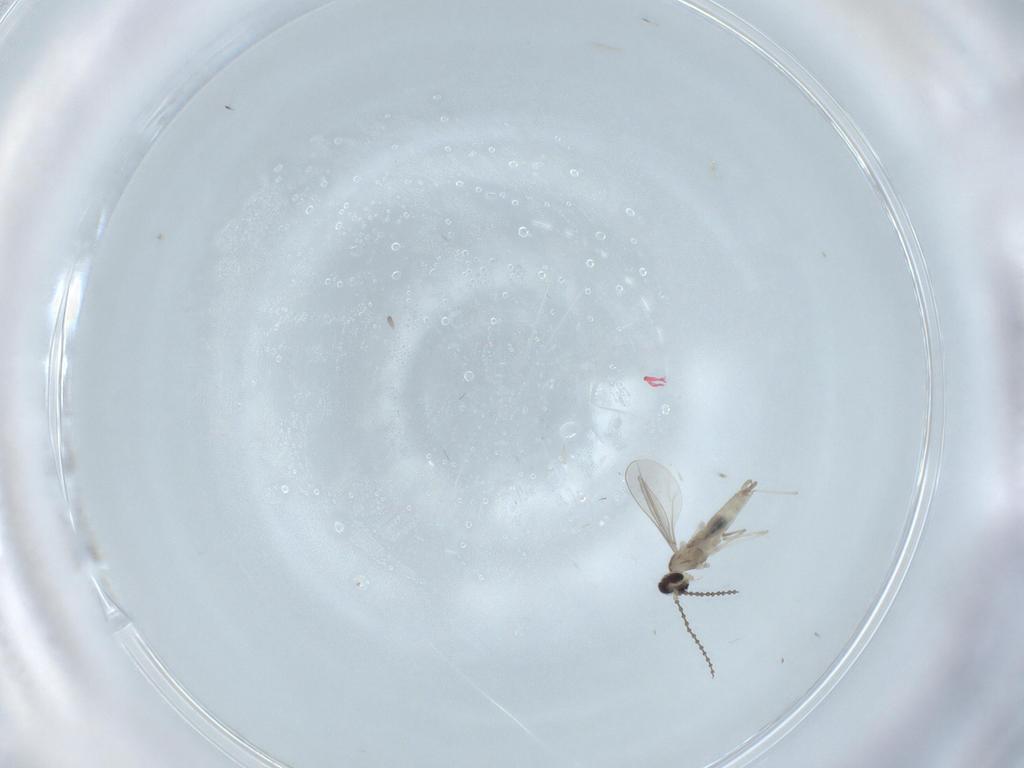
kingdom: Animalia
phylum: Arthropoda
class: Insecta
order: Diptera
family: Cecidomyiidae
